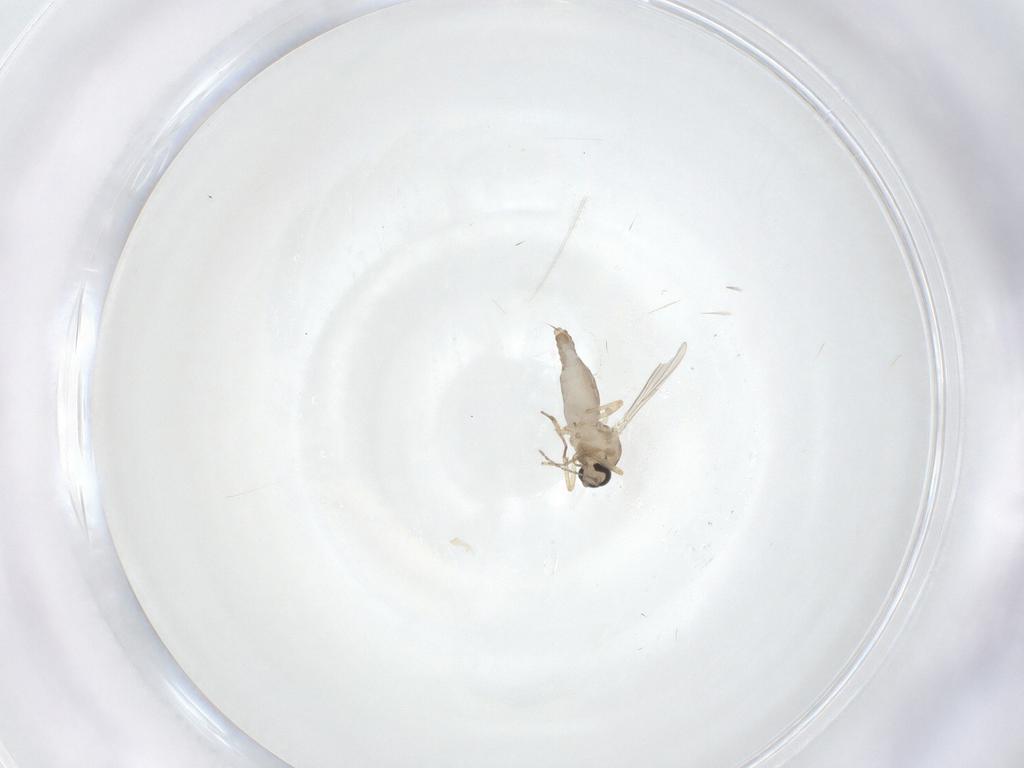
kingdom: Animalia
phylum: Arthropoda
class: Insecta
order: Diptera
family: Ceratopogonidae
